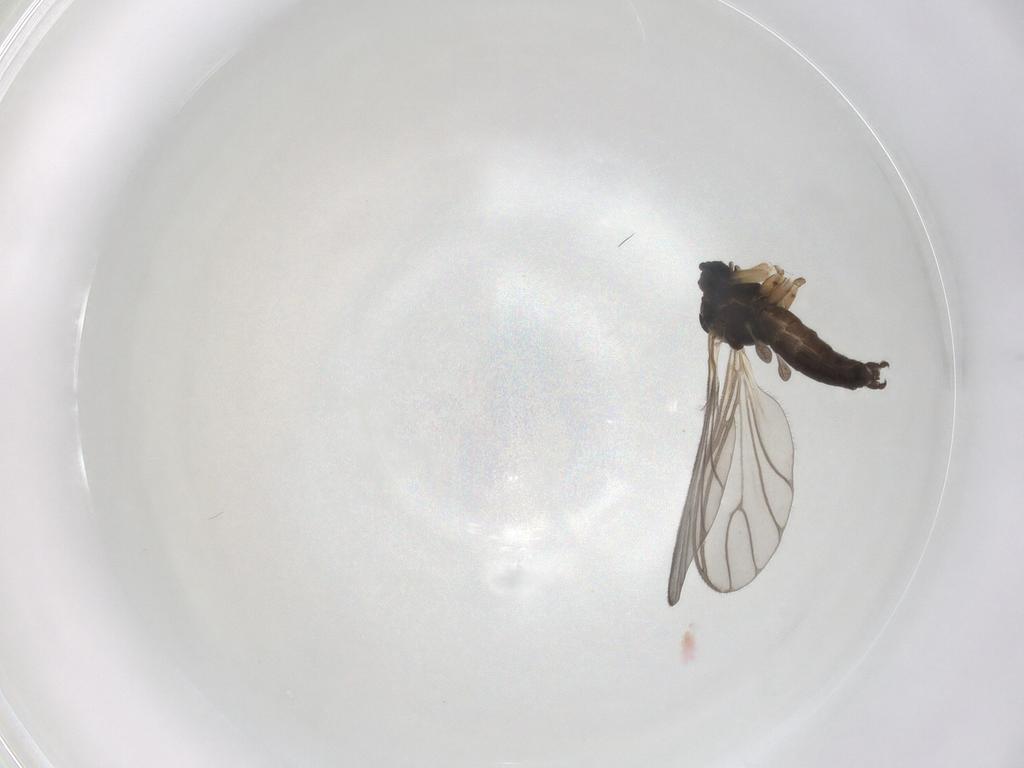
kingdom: Animalia
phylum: Arthropoda
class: Insecta
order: Diptera
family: Sciaridae
